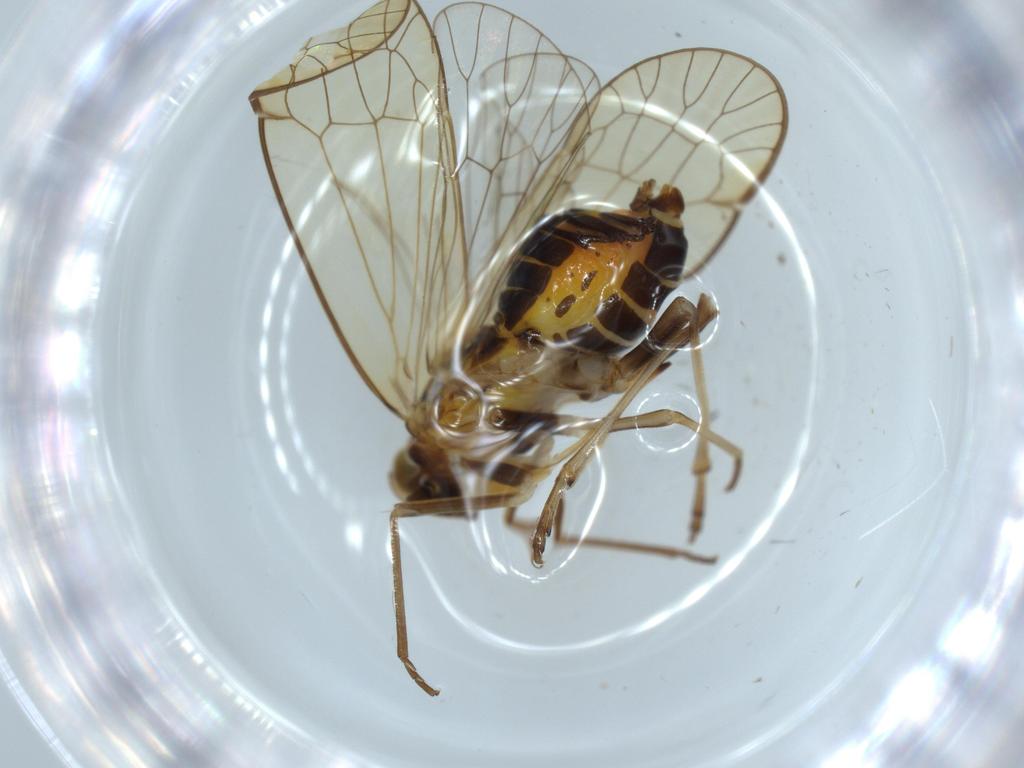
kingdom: Animalia
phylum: Arthropoda
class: Insecta
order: Hemiptera
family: Kinnaridae
